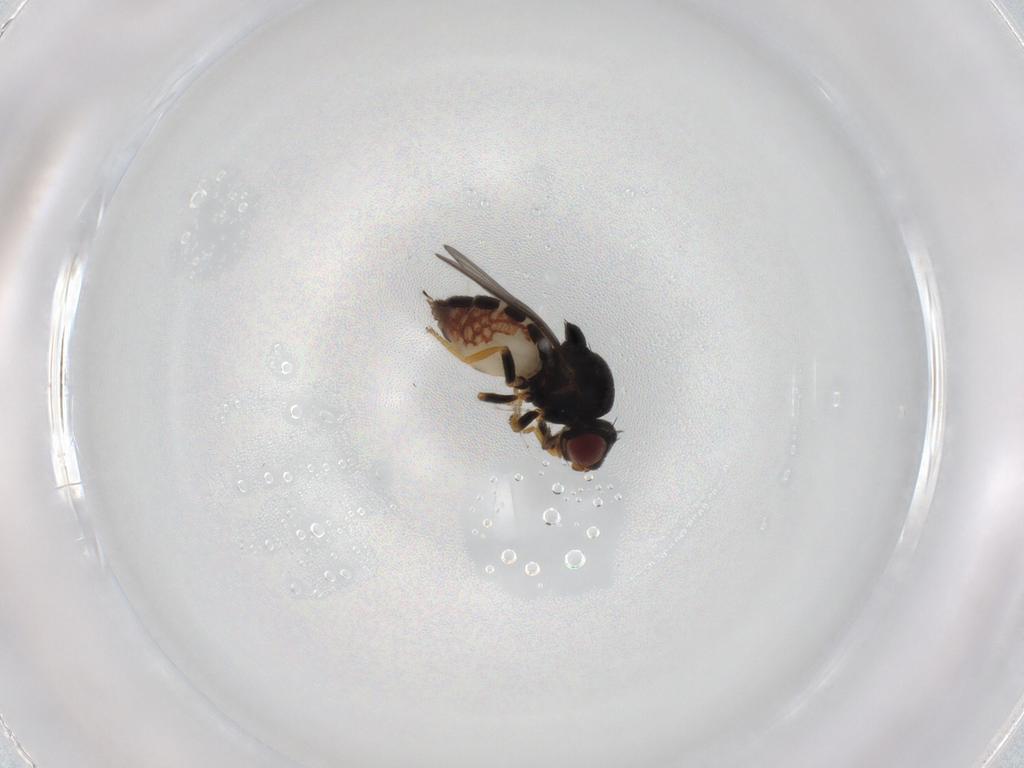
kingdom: Animalia
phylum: Arthropoda
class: Insecta
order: Diptera
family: Chloropidae
